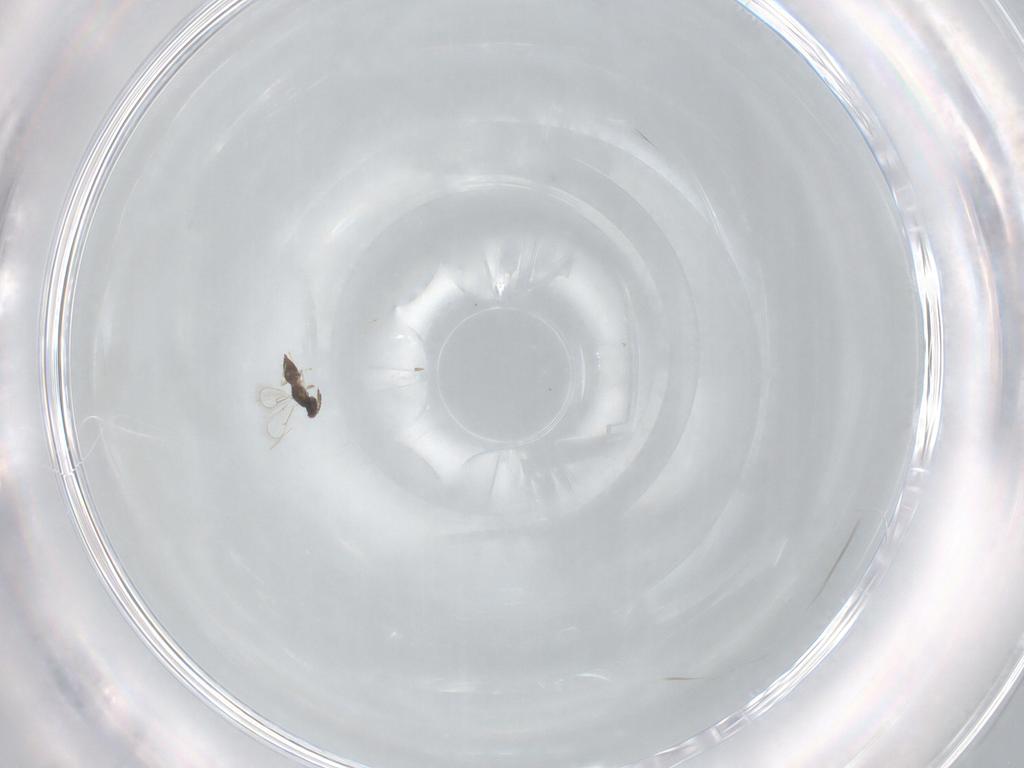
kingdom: Animalia
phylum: Arthropoda
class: Insecta
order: Hymenoptera
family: Eulophidae
